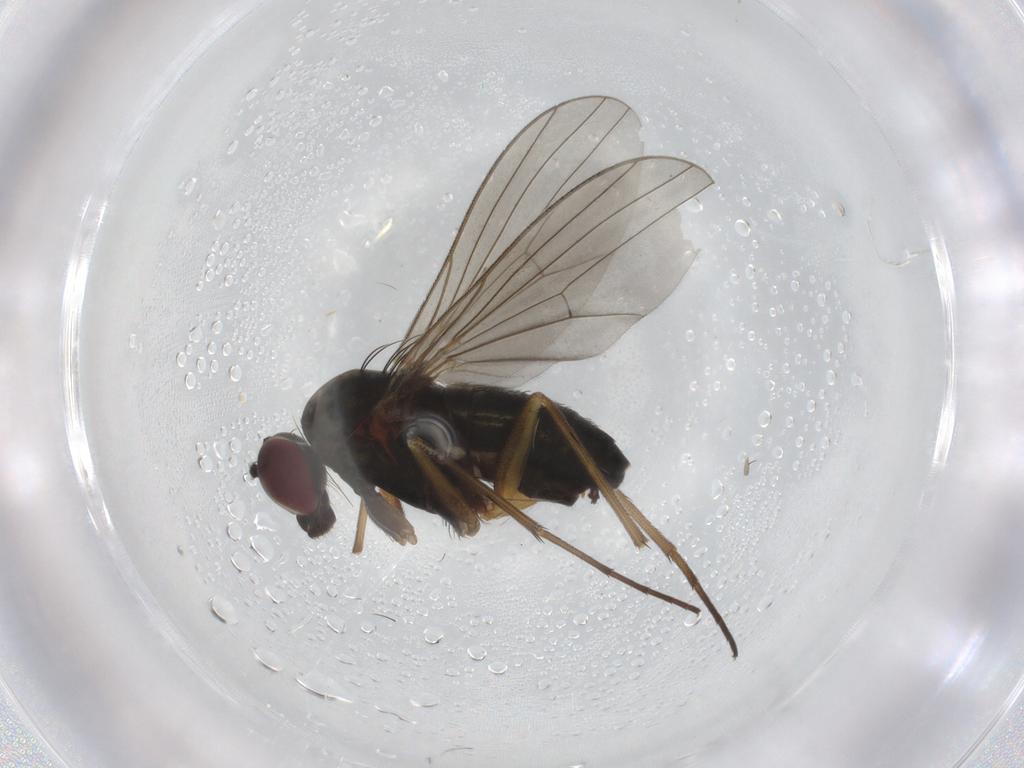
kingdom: Animalia
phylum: Arthropoda
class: Insecta
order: Diptera
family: Dolichopodidae
